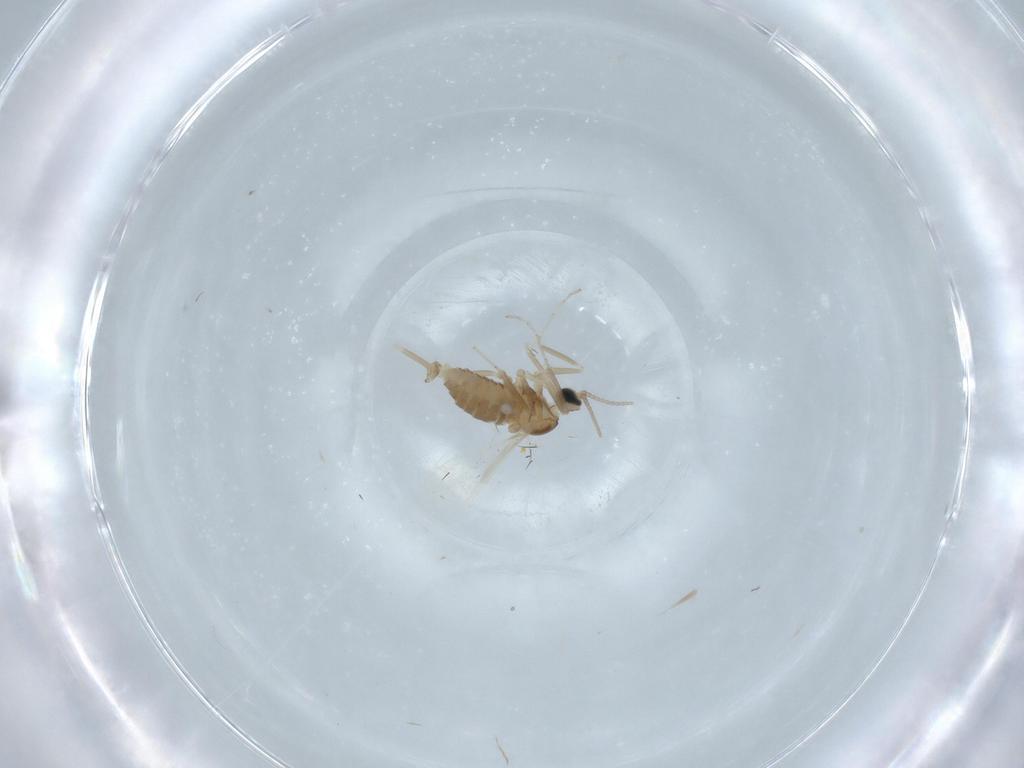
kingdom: Animalia
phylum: Arthropoda
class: Insecta
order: Diptera
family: Cecidomyiidae
